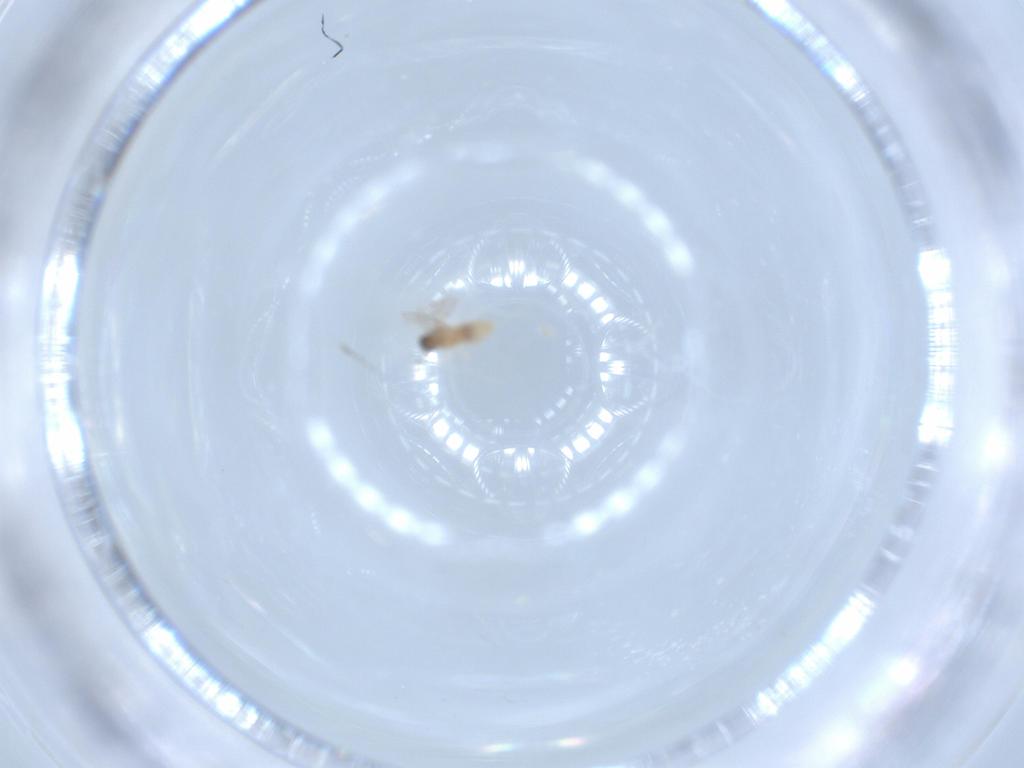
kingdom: Animalia
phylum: Arthropoda
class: Insecta
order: Diptera
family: Cecidomyiidae
